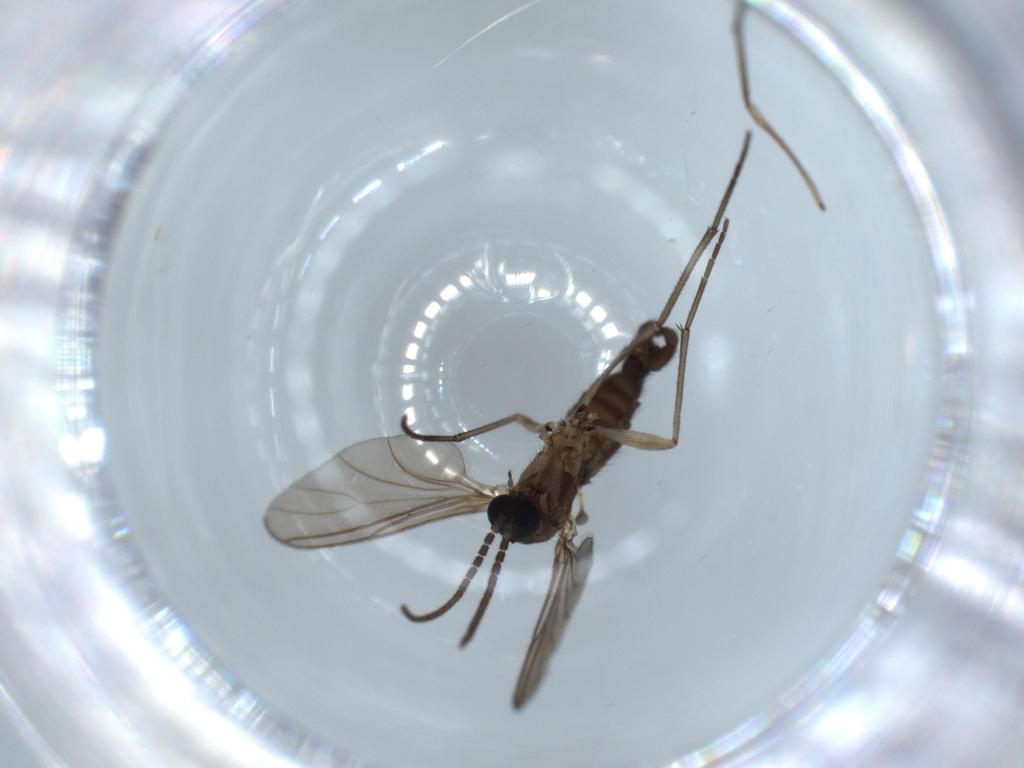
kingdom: Animalia
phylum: Arthropoda
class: Insecta
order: Diptera
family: Sciaridae
